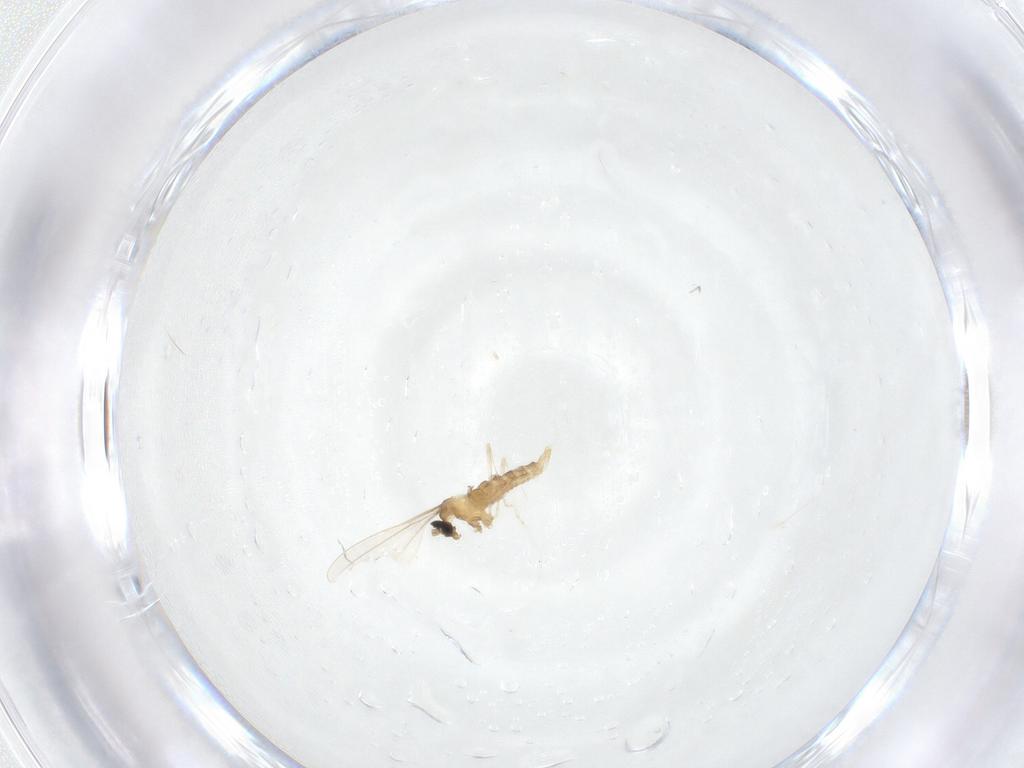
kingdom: Animalia
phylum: Arthropoda
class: Insecta
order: Diptera
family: Cecidomyiidae
